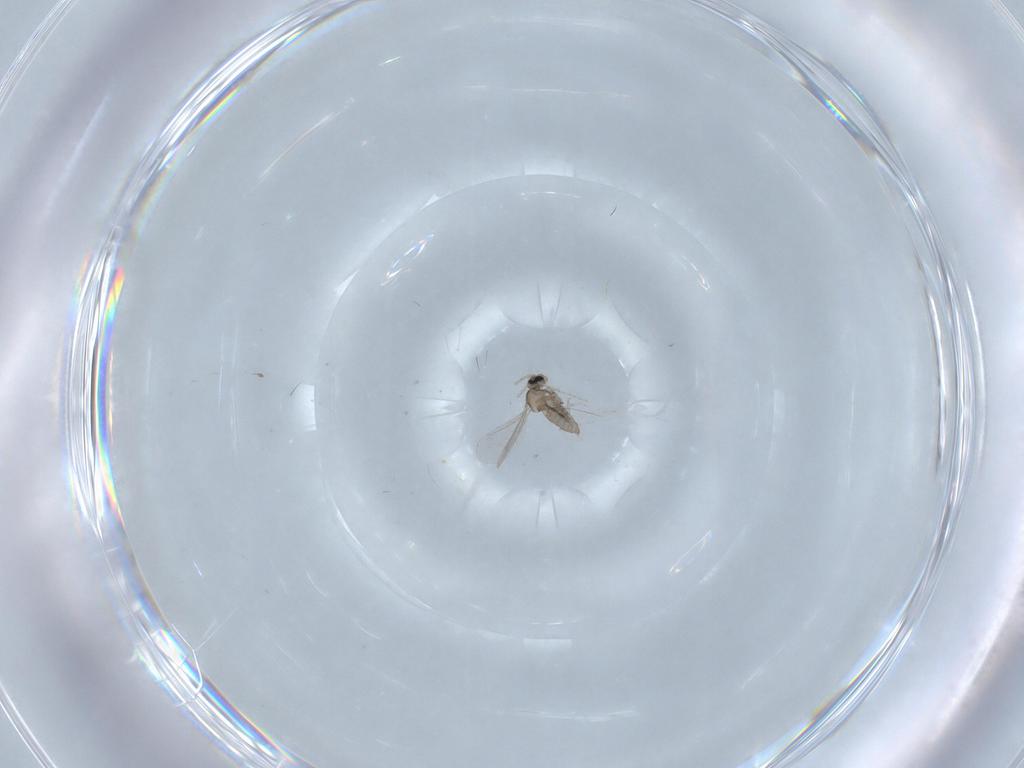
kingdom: Animalia
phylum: Arthropoda
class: Insecta
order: Diptera
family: Cecidomyiidae
